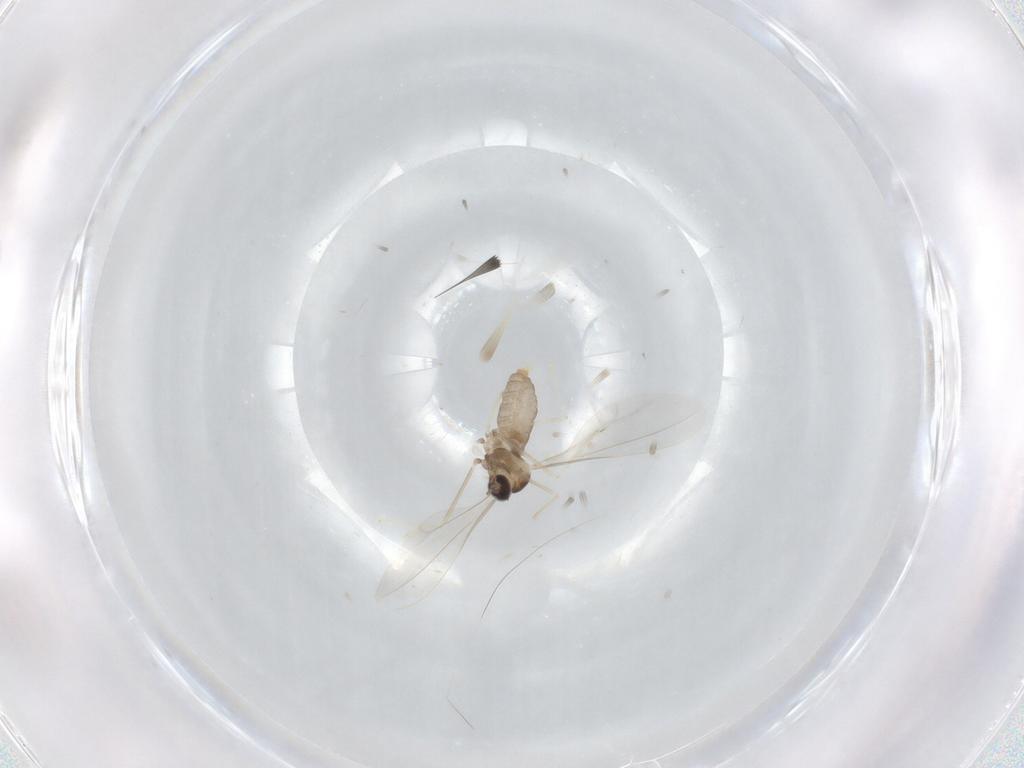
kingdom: Animalia
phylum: Arthropoda
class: Insecta
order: Diptera
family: Cecidomyiidae
